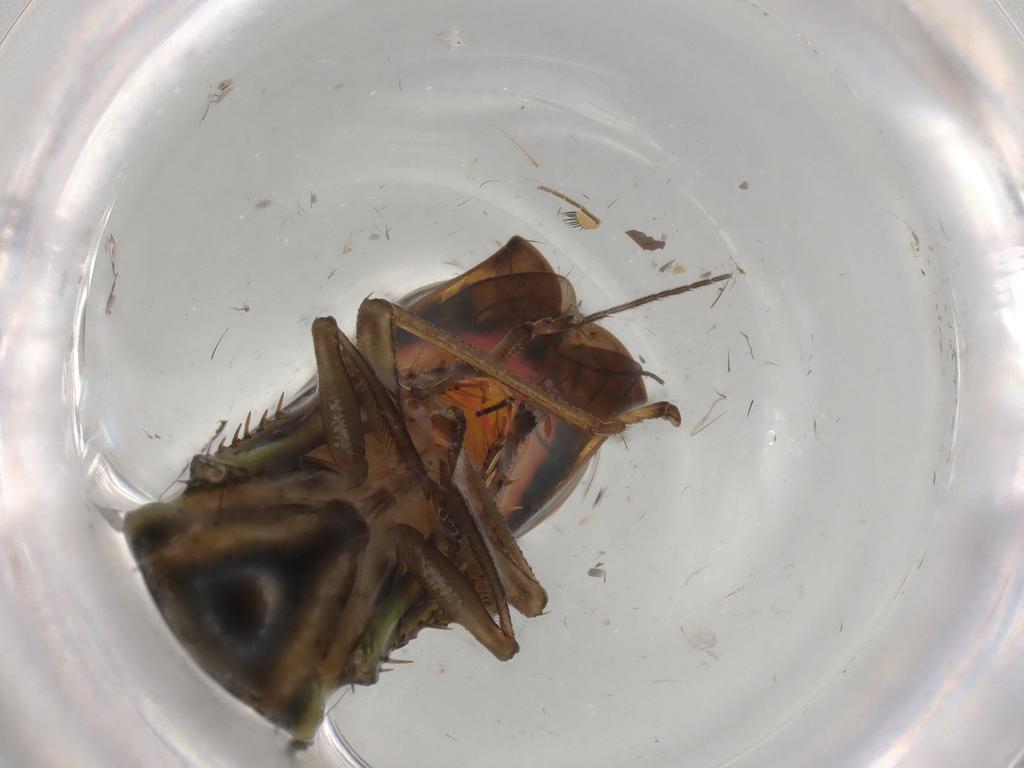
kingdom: Animalia
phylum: Arthropoda
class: Insecta
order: Hemiptera
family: Cicadellidae
